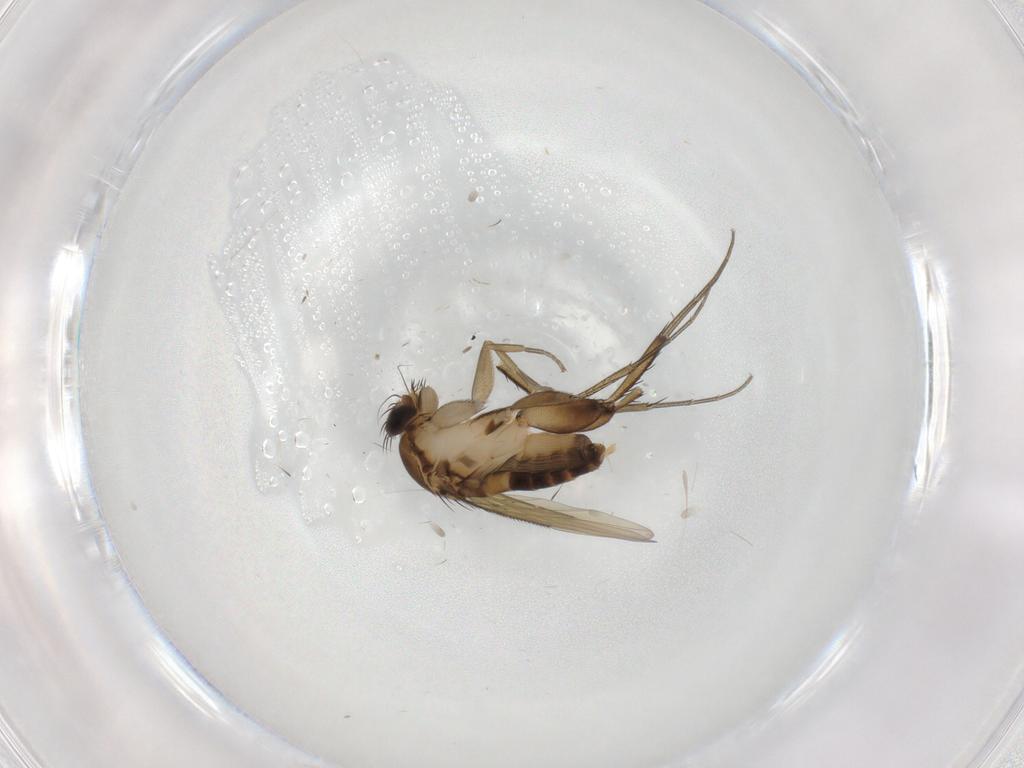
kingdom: Animalia
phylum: Arthropoda
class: Insecta
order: Diptera
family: Phoridae
